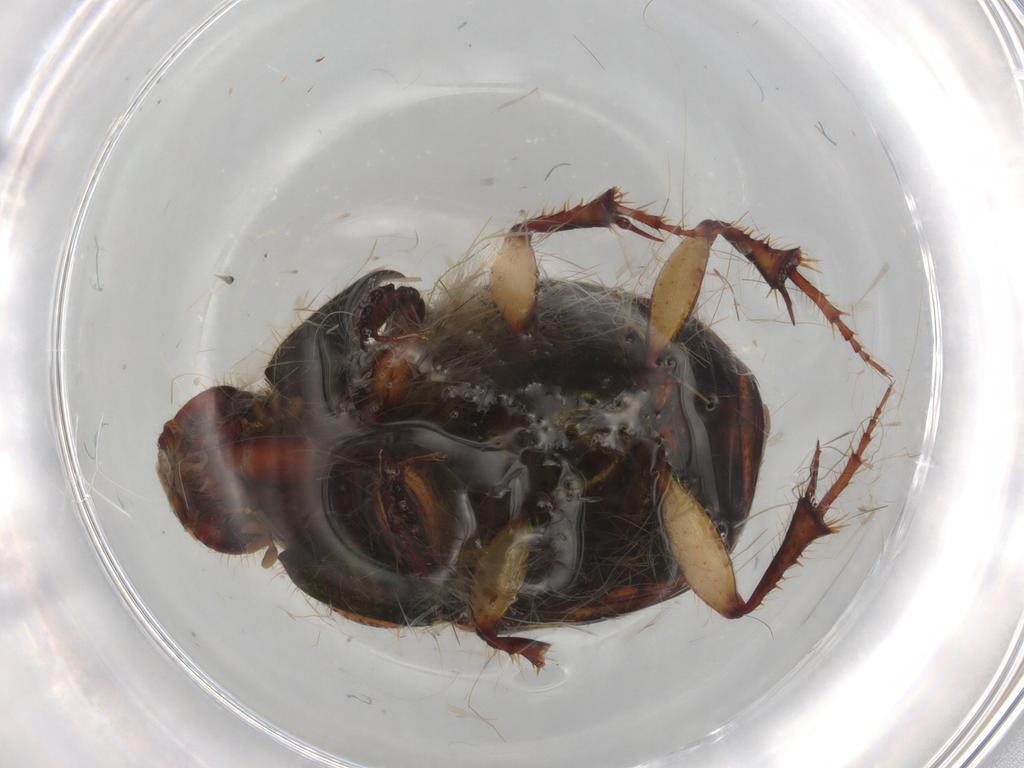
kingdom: Animalia
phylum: Arthropoda
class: Insecta
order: Coleoptera
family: Staphylinidae
